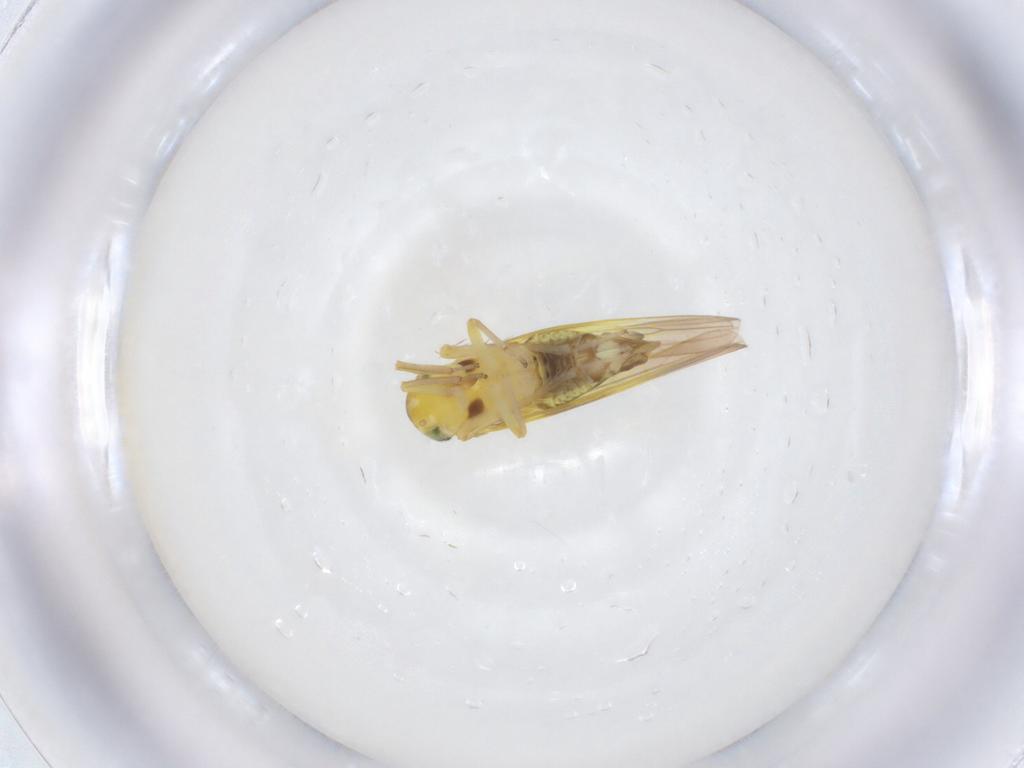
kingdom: Animalia
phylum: Arthropoda
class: Insecta
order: Hemiptera
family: Cicadellidae
